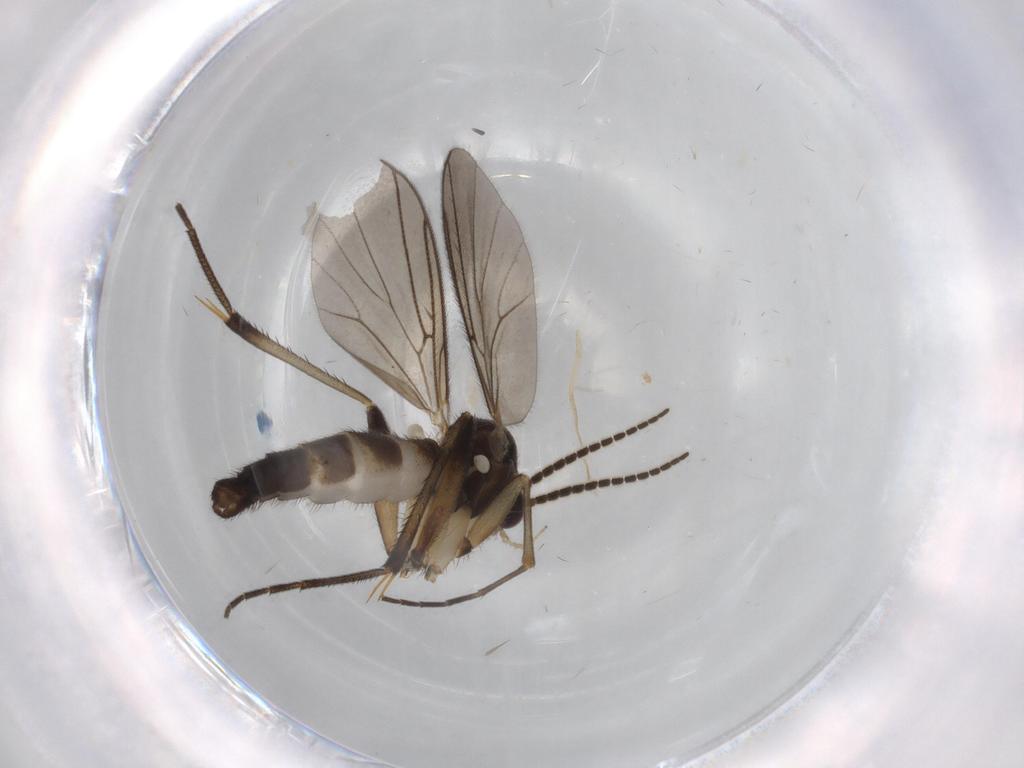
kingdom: Animalia
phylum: Arthropoda
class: Insecta
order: Diptera
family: Mycetophilidae
